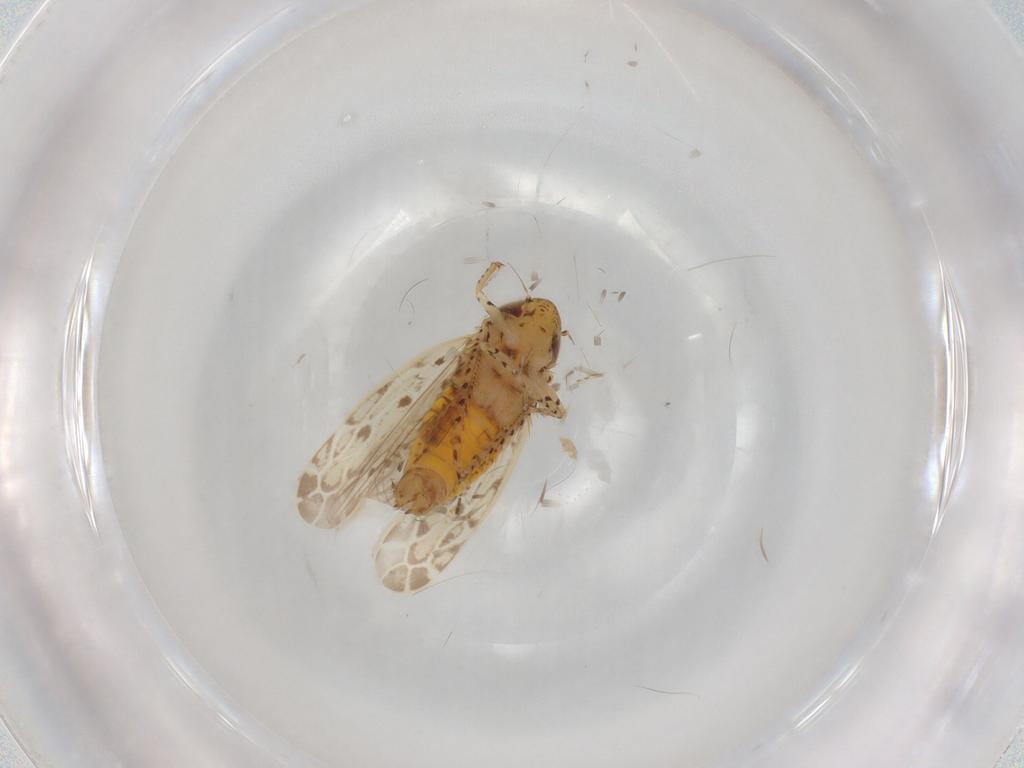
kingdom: Animalia
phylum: Arthropoda
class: Insecta
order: Hemiptera
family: Cicadellidae
